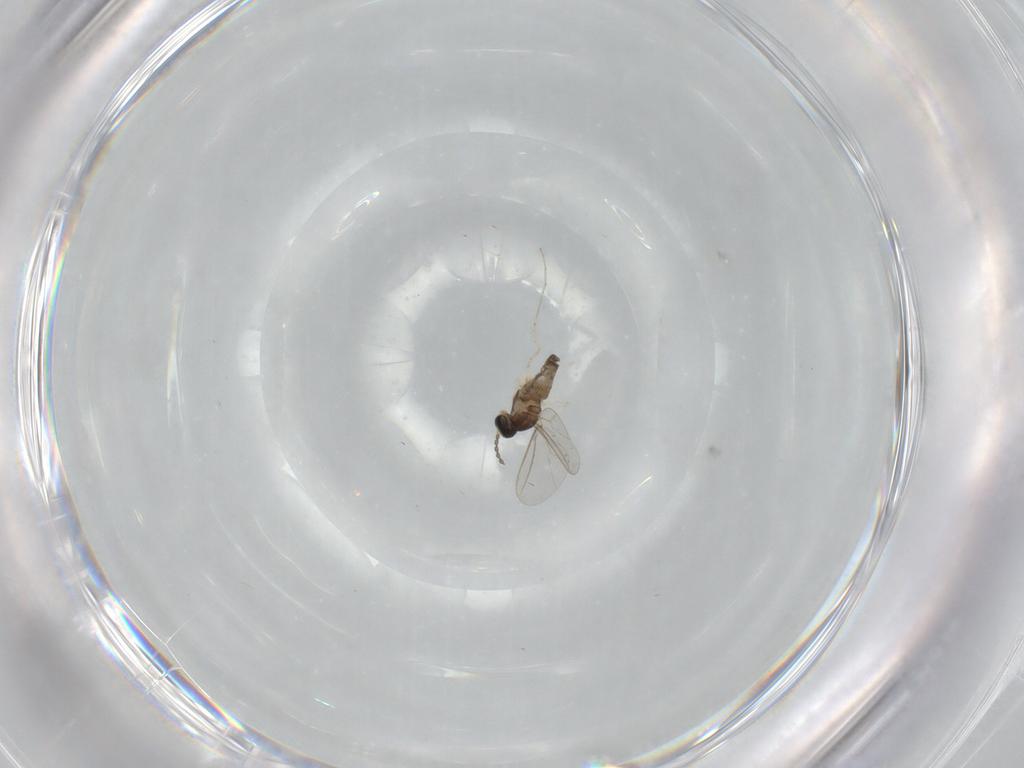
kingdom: Animalia
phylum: Arthropoda
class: Insecta
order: Diptera
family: Cecidomyiidae
